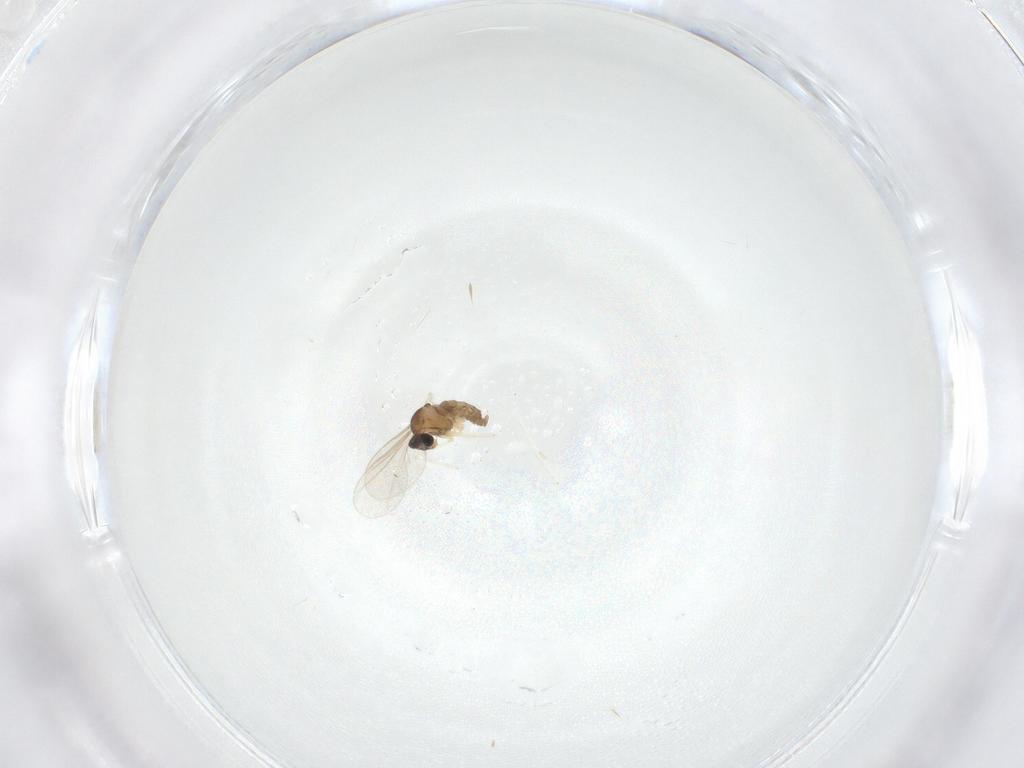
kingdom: Animalia
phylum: Arthropoda
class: Insecta
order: Diptera
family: Cecidomyiidae
